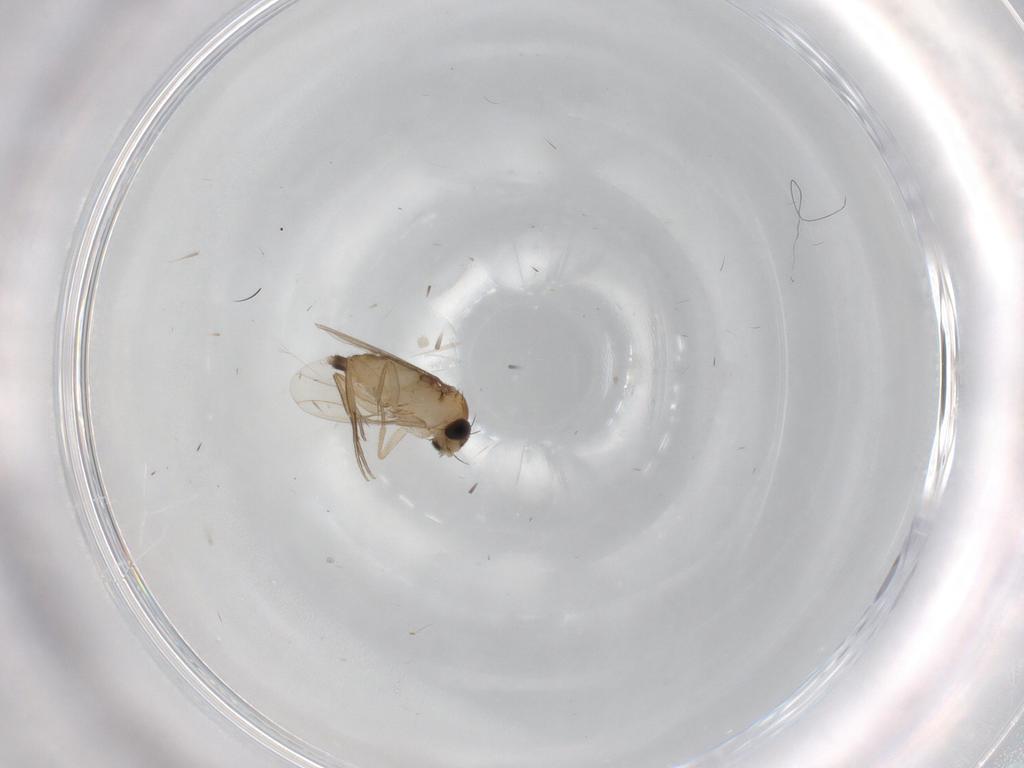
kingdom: Animalia
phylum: Arthropoda
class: Insecta
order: Diptera
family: Phoridae
